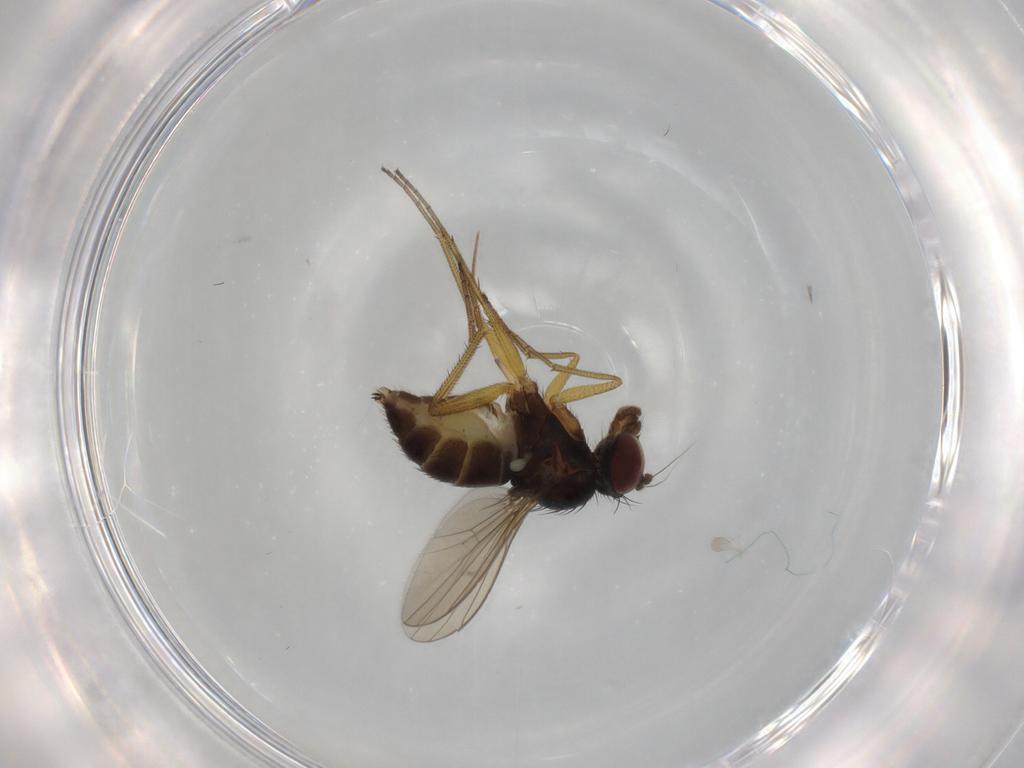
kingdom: Animalia
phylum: Arthropoda
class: Insecta
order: Diptera
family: Dolichopodidae
